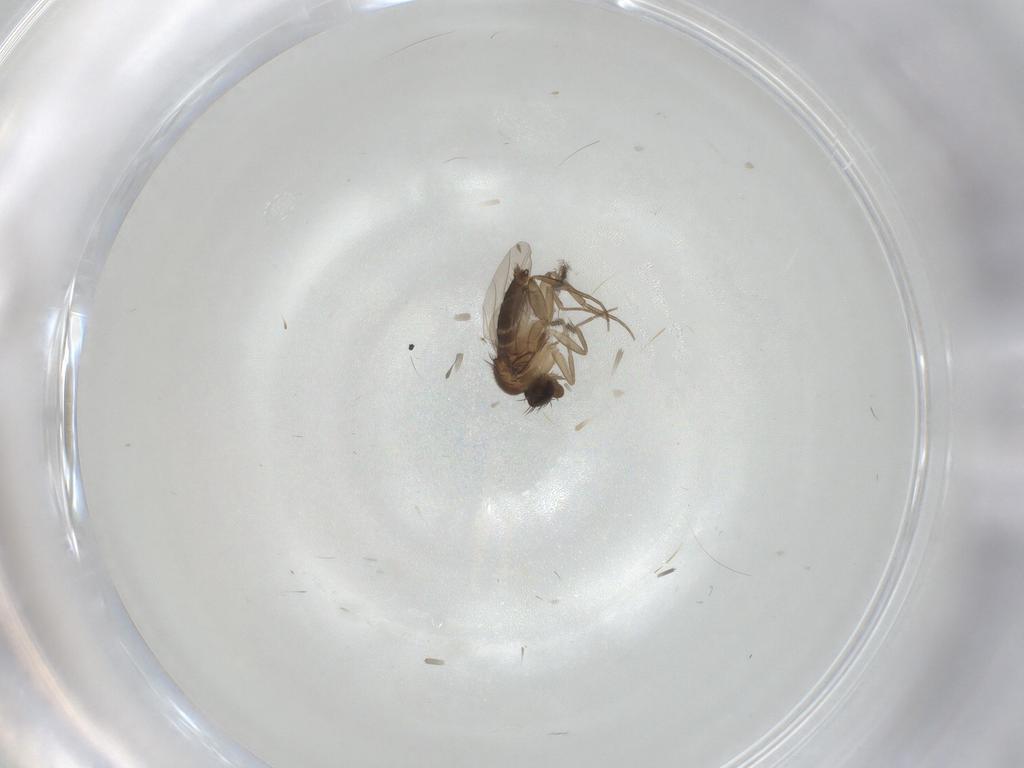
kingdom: Animalia
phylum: Arthropoda
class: Insecta
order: Diptera
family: Phoridae
